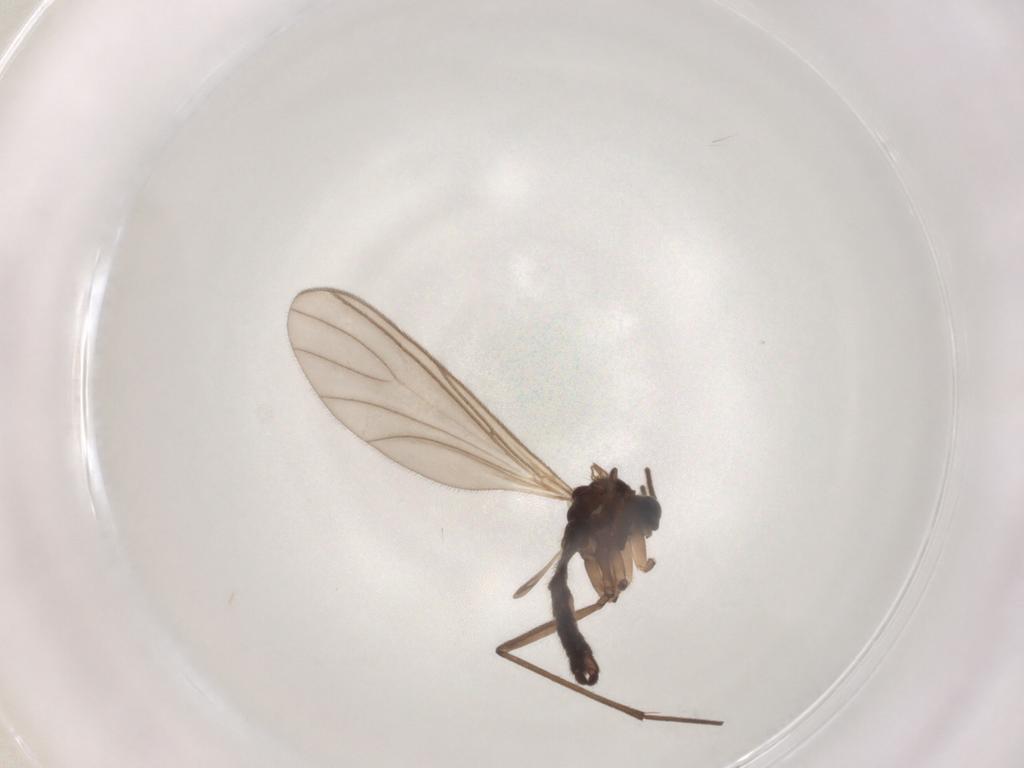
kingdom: Animalia
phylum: Arthropoda
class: Insecta
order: Diptera
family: Sciaridae
